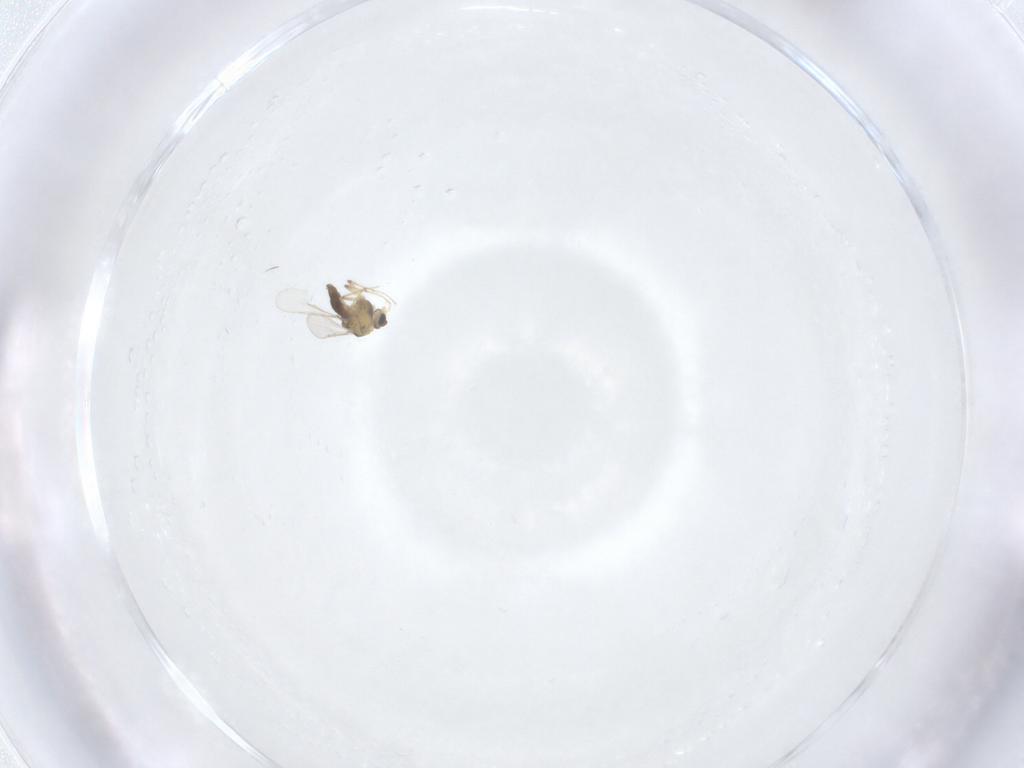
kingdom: Animalia
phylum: Arthropoda
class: Insecta
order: Diptera
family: Chironomidae
